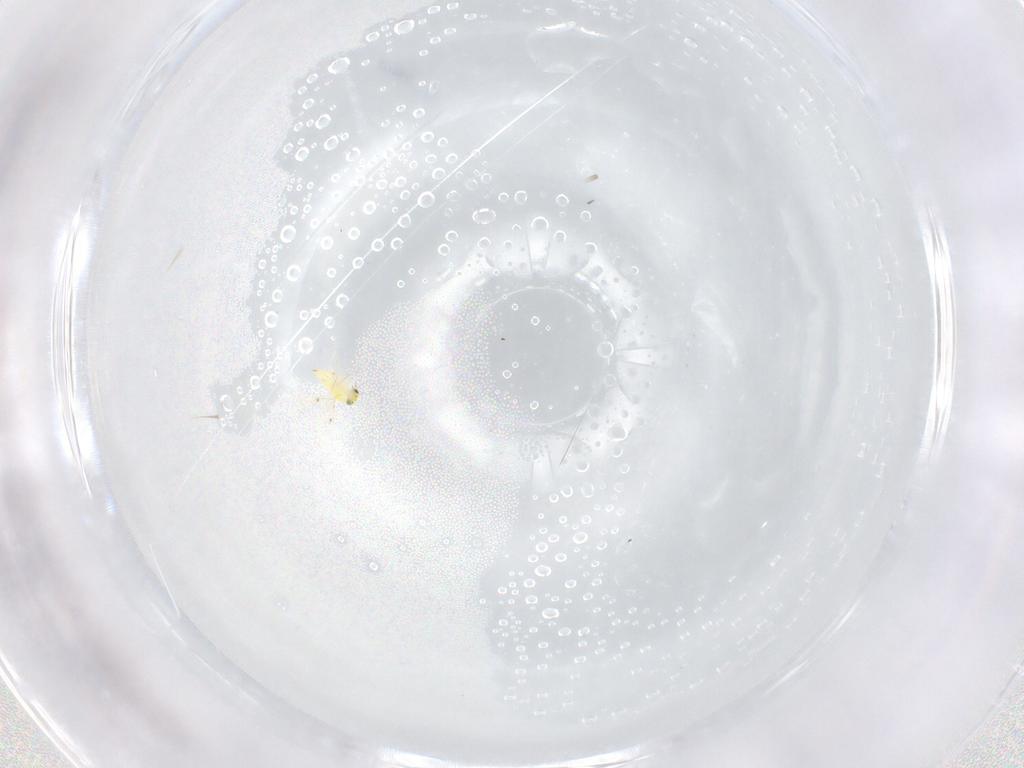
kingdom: Animalia
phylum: Arthropoda
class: Insecta
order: Hymenoptera
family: Trichogrammatidae
